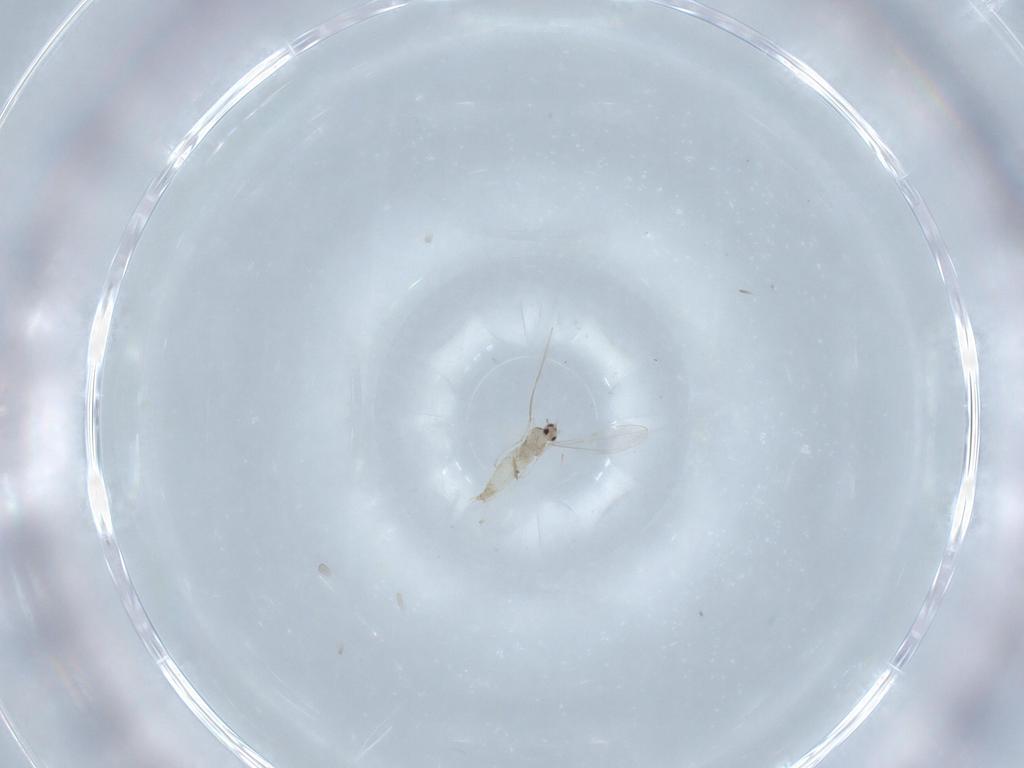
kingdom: Animalia
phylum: Arthropoda
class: Insecta
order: Diptera
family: Cecidomyiidae
